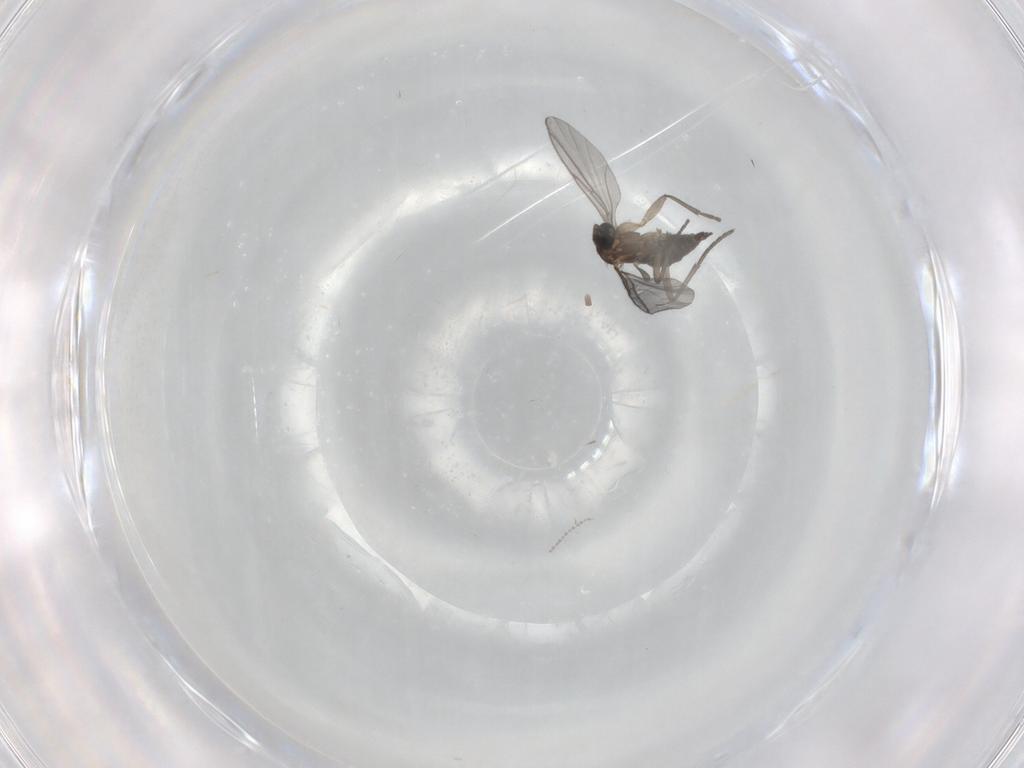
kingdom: Animalia
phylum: Arthropoda
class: Insecta
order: Diptera
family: Sciaridae
